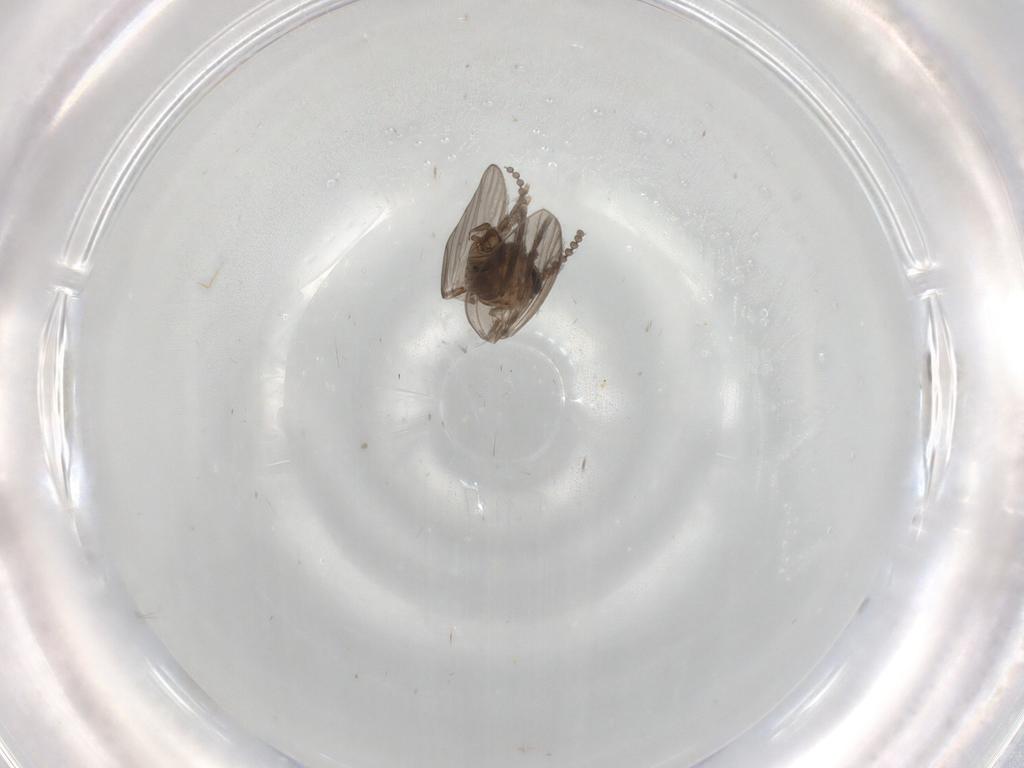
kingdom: Animalia
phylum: Arthropoda
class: Insecta
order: Diptera
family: Psychodidae
